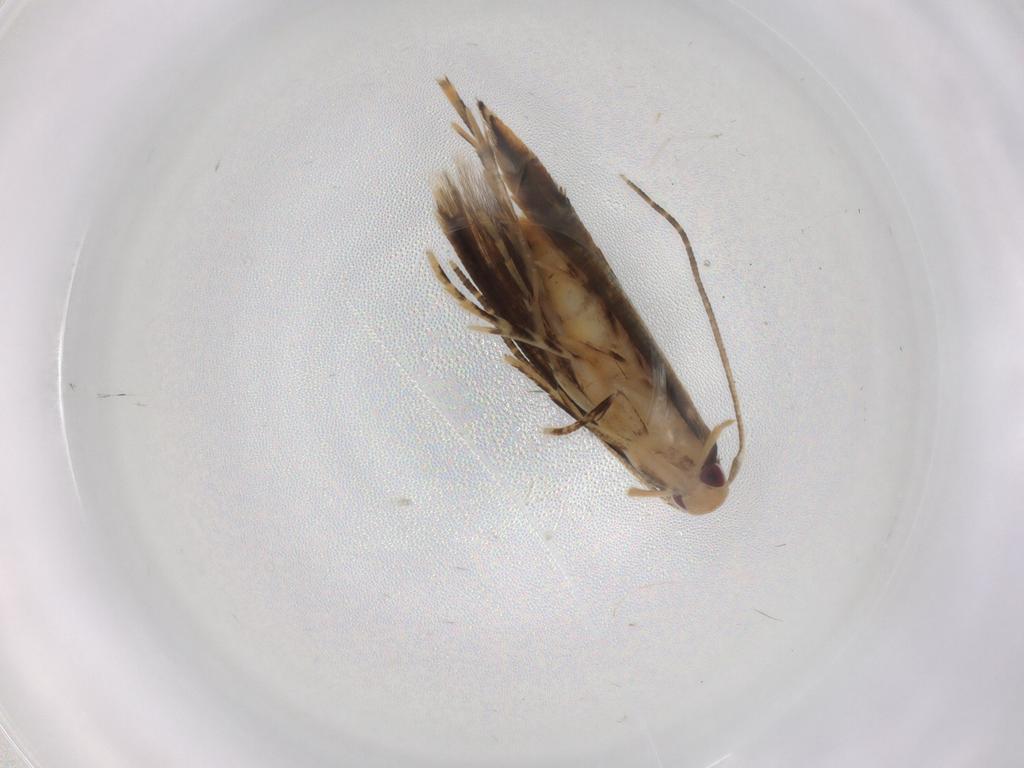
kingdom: Animalia
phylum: Arthropoda
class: Insecta
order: Lepidoptera
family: Momphidae
